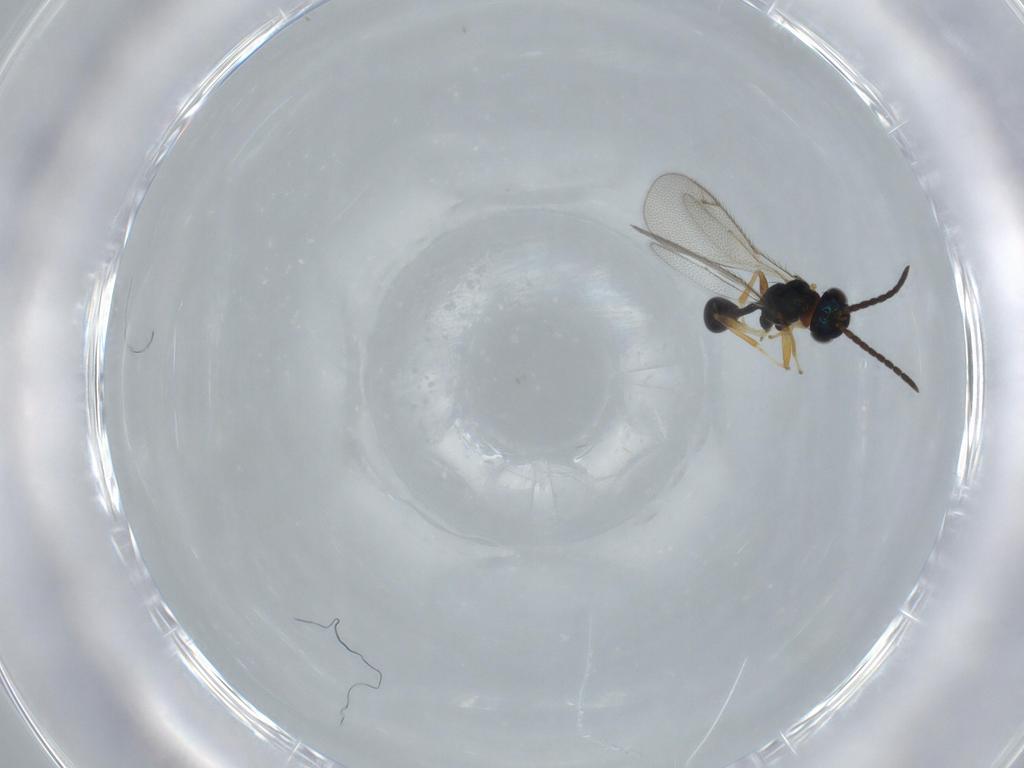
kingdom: Animalia
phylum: Arthropoda
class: Insecta
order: Hymenoptera
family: Diparidae
